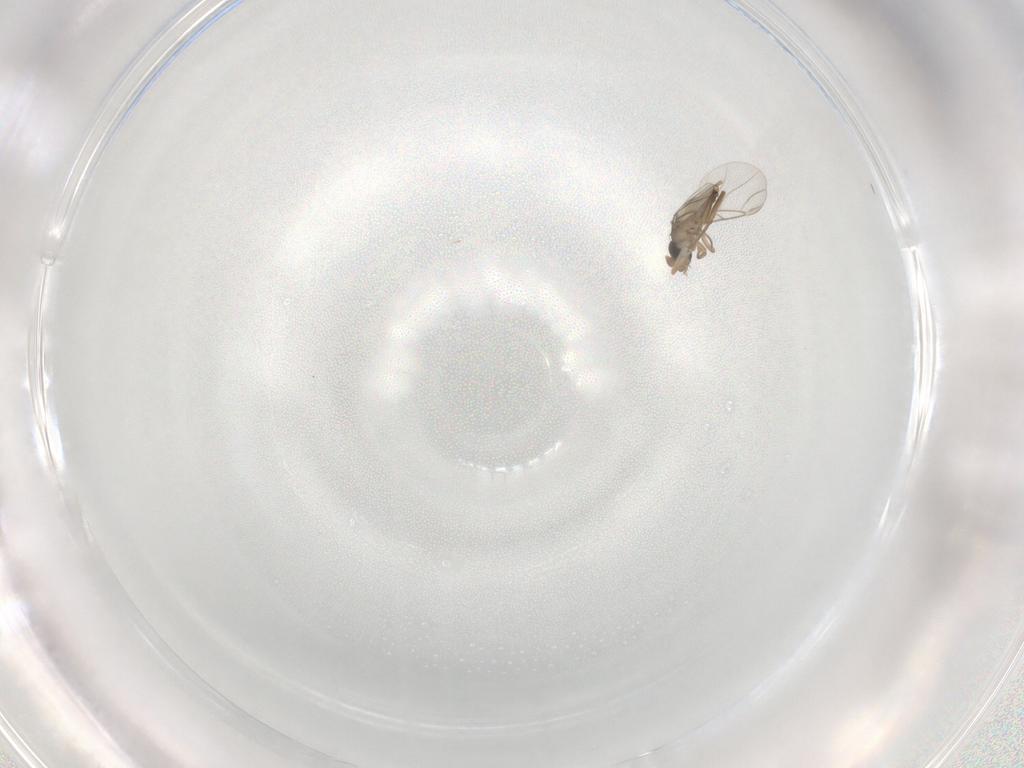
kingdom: Animalia
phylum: Arthropoda
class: Insecta
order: Diptera
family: Phoridae
